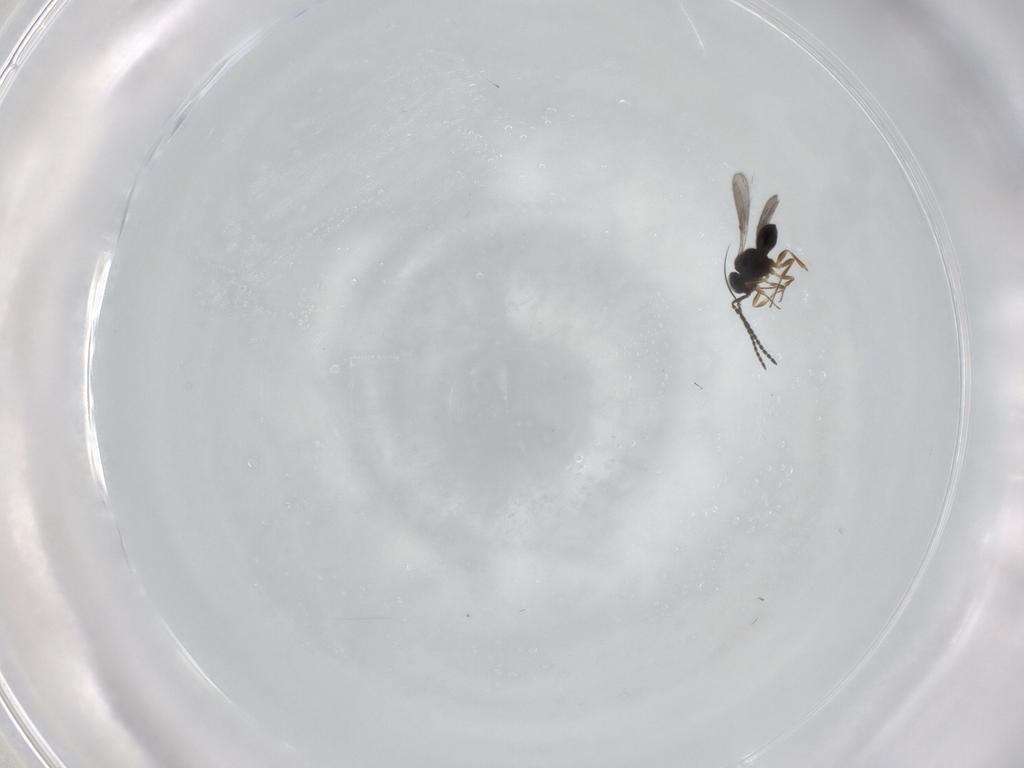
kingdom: Animalia
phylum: Arthropoda
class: Insecta
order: Hymenoptera
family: Scelionidae
